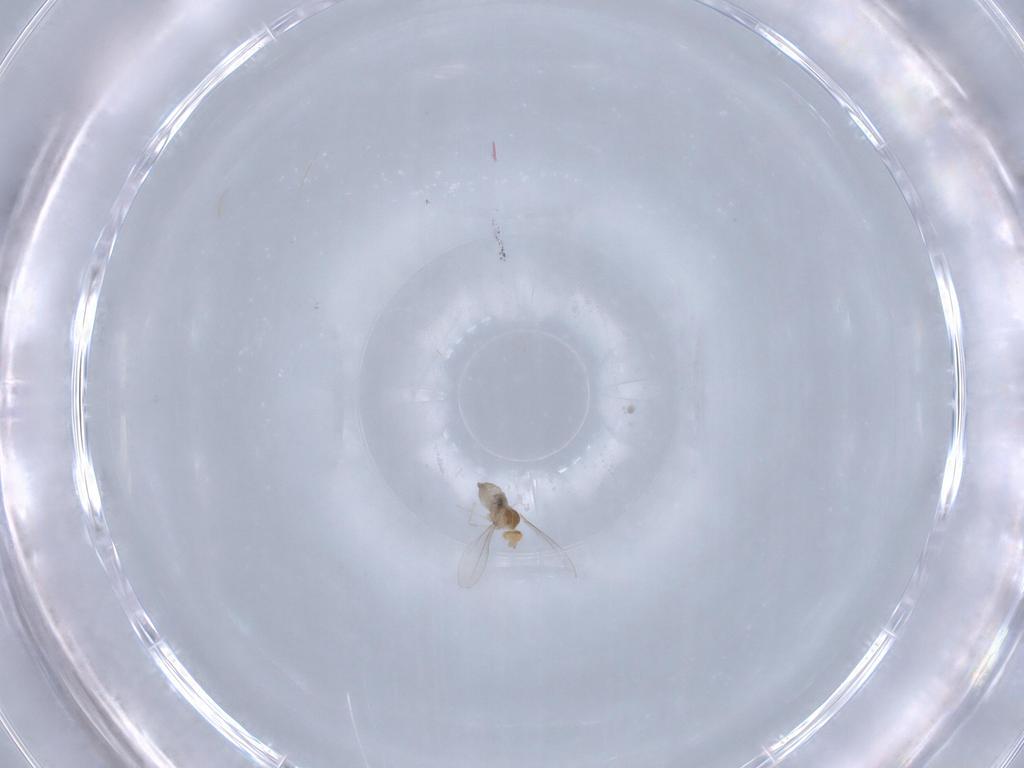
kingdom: Animalia
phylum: Arthropoda
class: Insecta
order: Diptera
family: Cecidomyiidae
